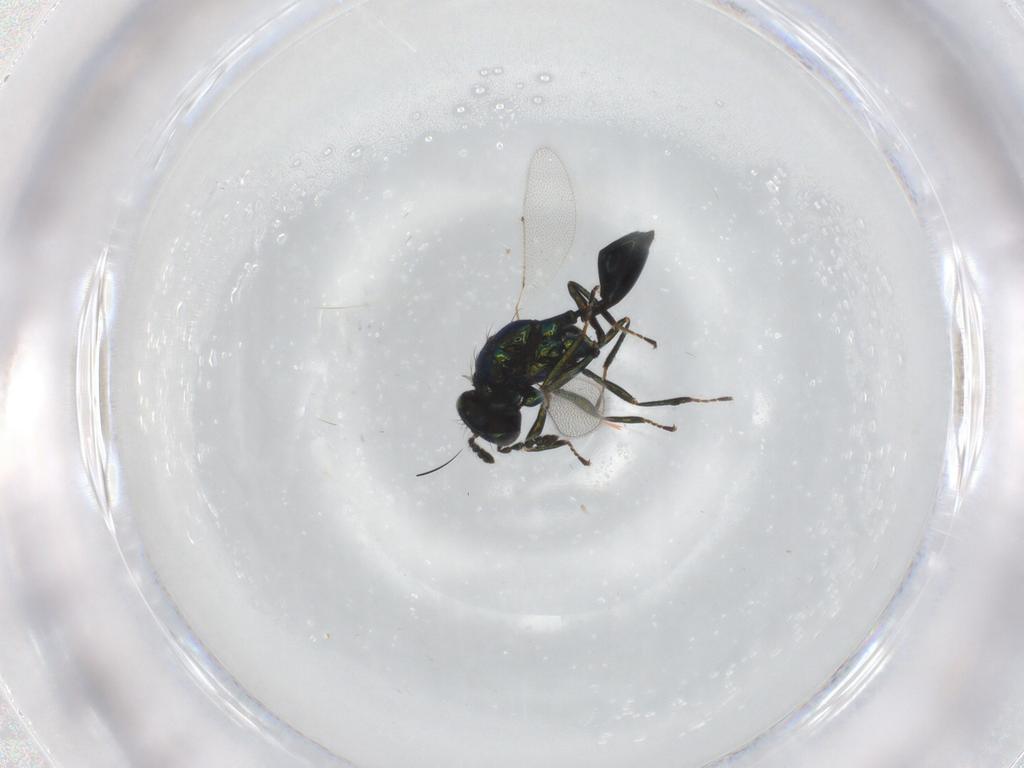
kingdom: Animalia
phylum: Arthropoda
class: Insecta
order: Hymenoptera
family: Eulophidae
